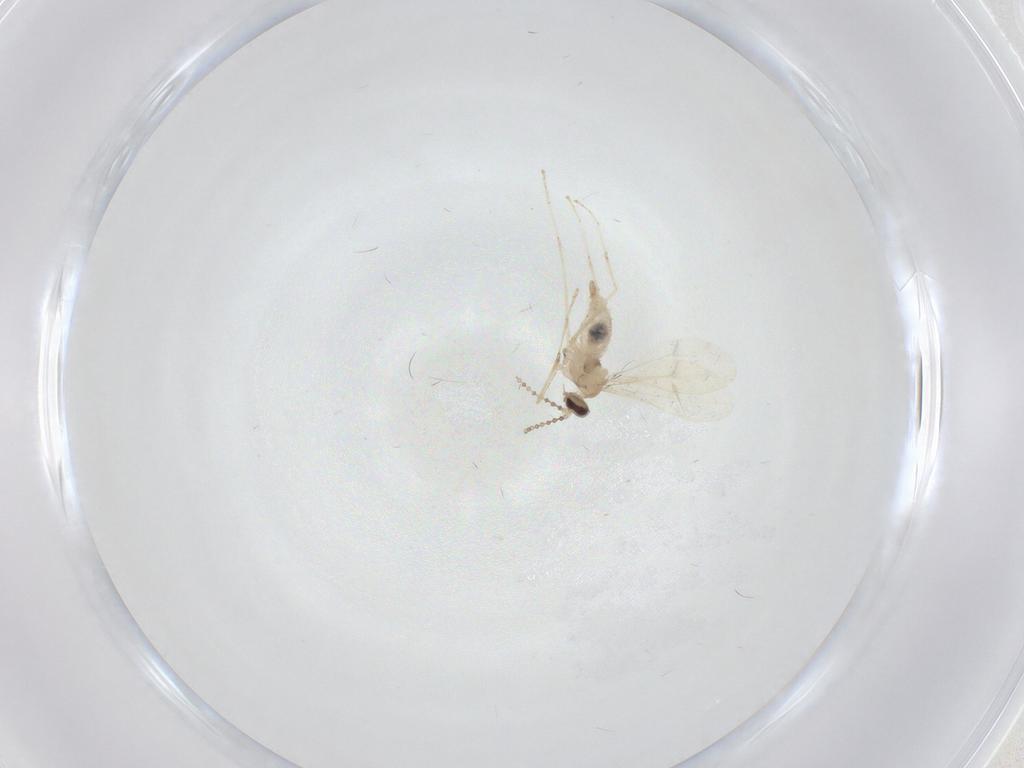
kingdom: Animalia
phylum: Arthropoda
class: Insecta
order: Diptera
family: Cecidomyiidae
